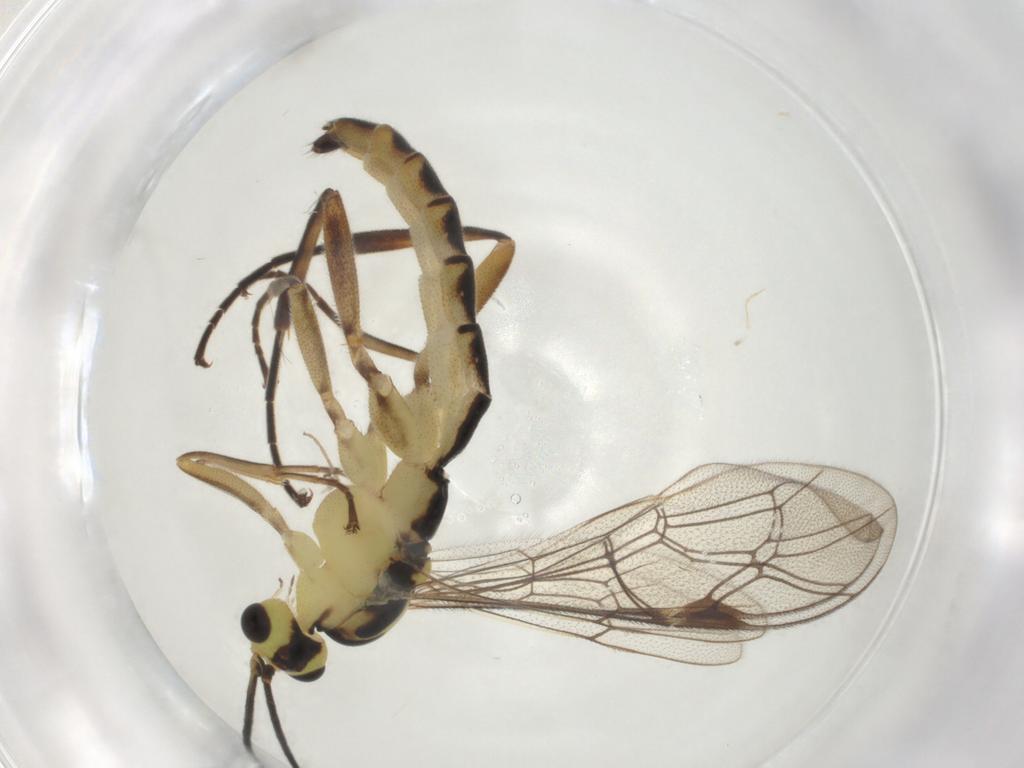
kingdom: Animalia
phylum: Arthropoda
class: Insecta
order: Hymenoptera
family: Ichneumonidae
